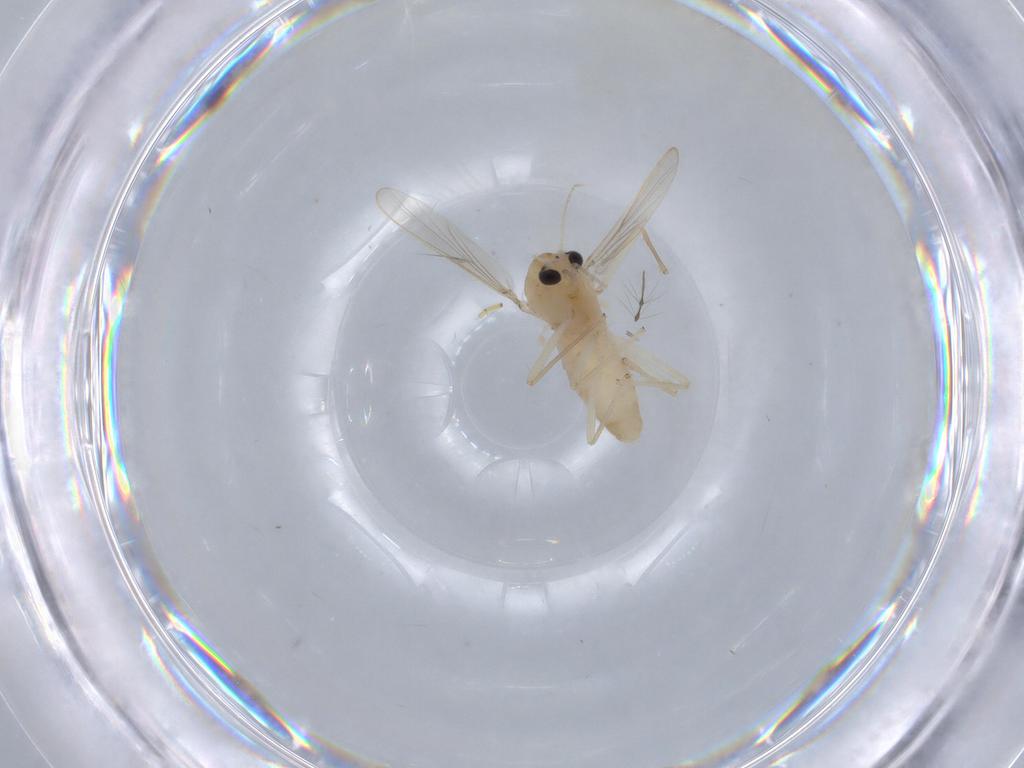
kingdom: Animalia
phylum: Arthropoda
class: Insecta
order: Diptera
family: Chironomidae
